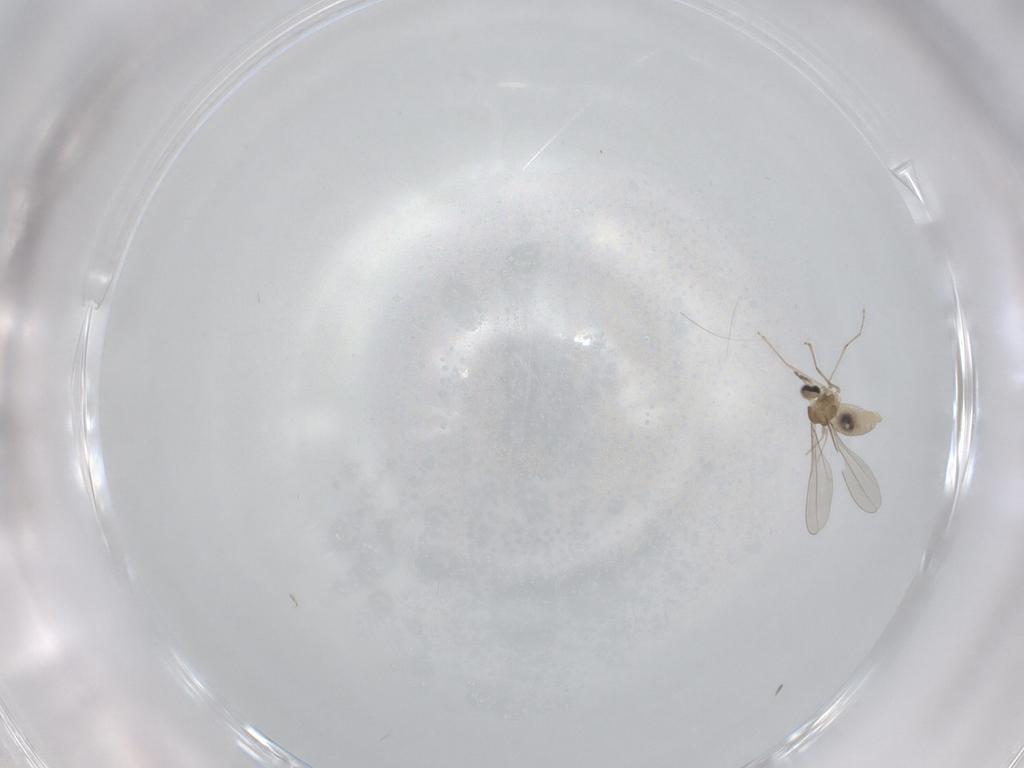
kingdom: Animalia
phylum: Arthropoda
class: Insecta
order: Diptera
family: Cecidomyiidae
